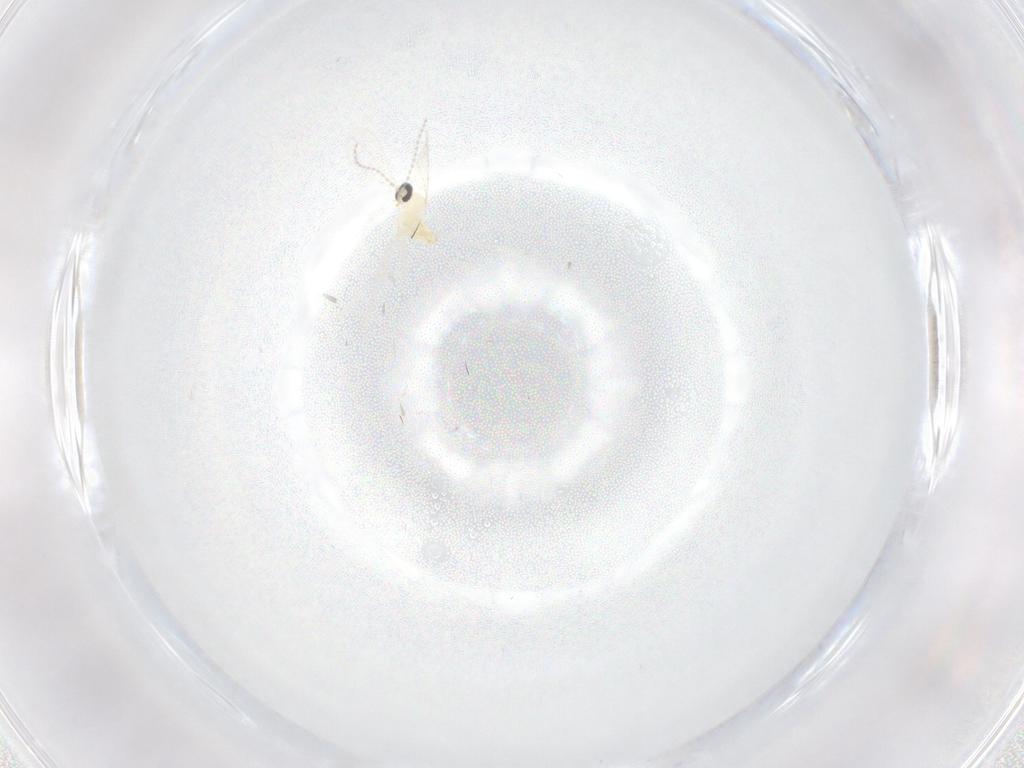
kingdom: Animalia
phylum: Arthropoda
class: Insecta
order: Diptera
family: Cecidomyiidae
